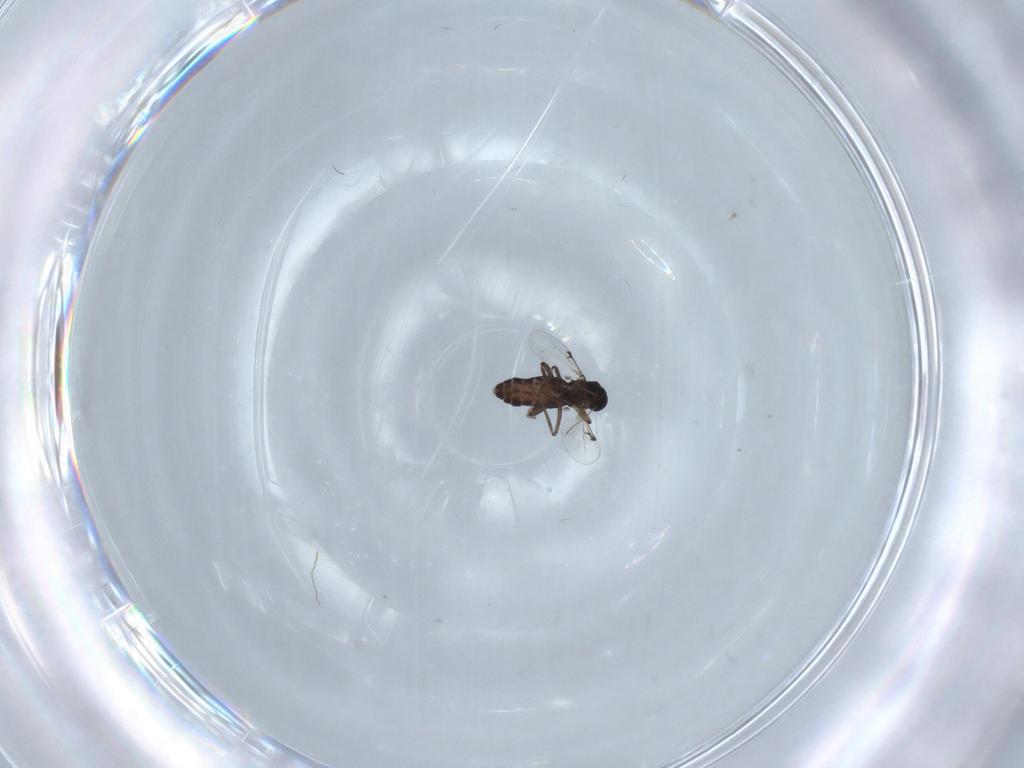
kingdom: Animalia
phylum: Arthropoda
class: Insecta
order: Diptera
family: Ceratopogonidae
